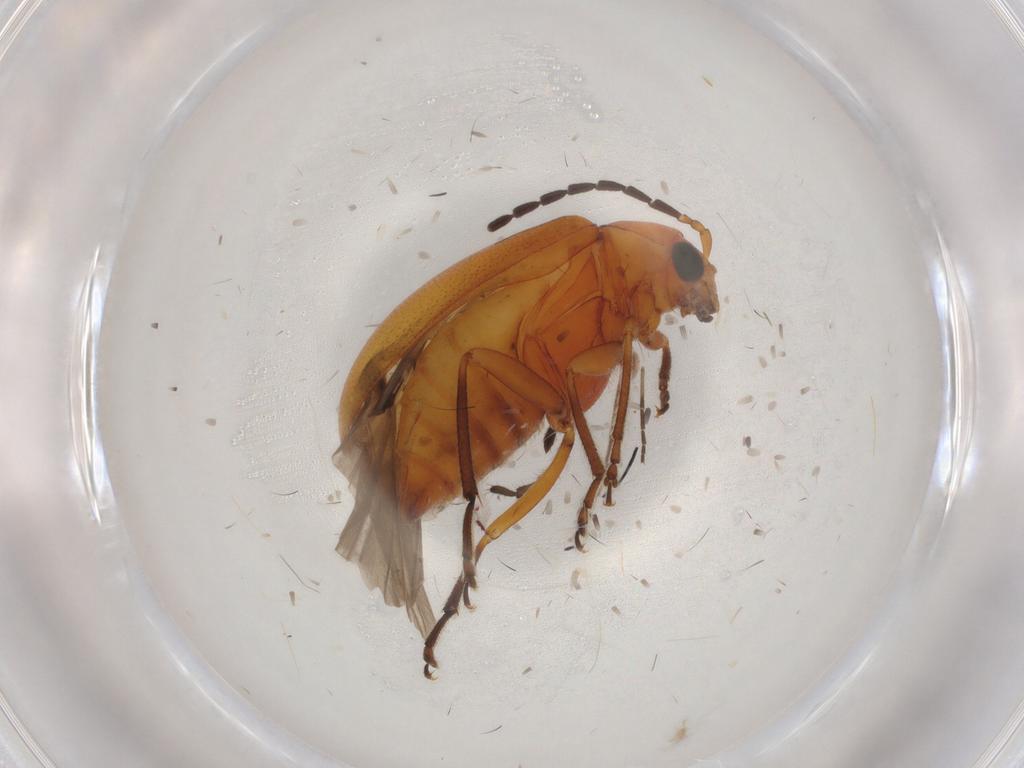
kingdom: Animalia
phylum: Arthropoda
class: Insecta
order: Coleoptera
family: Chrysomelidae
